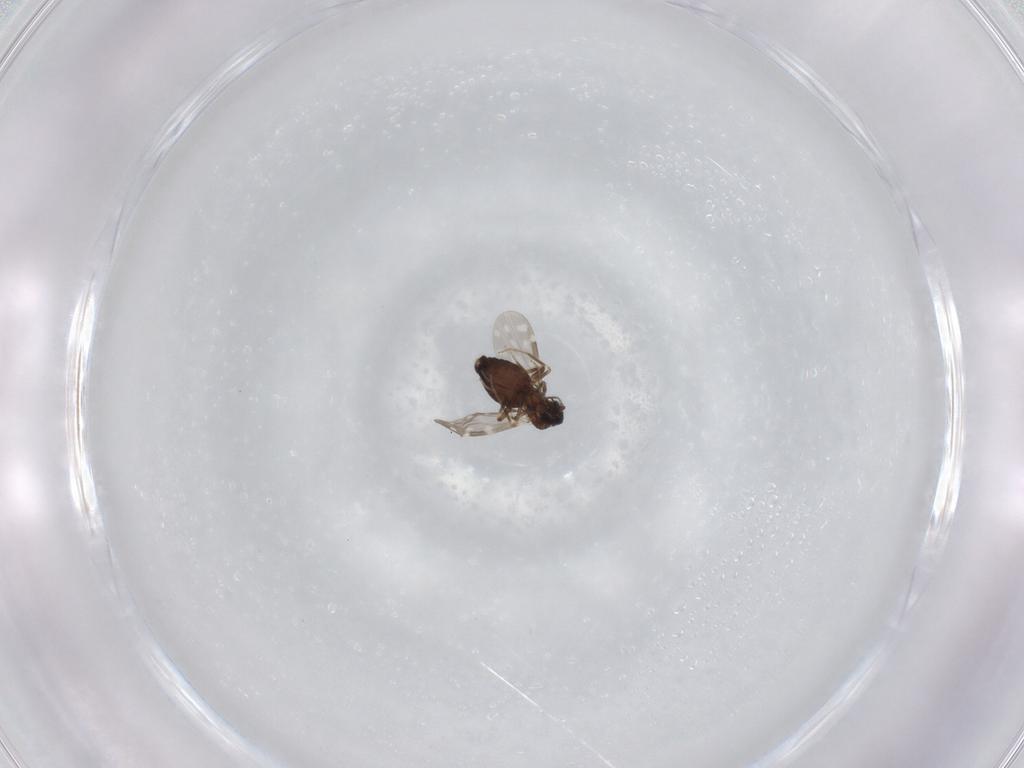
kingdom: Animalia
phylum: Arthropoda
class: Insecta
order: Diptera
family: Ceratopogonidae
